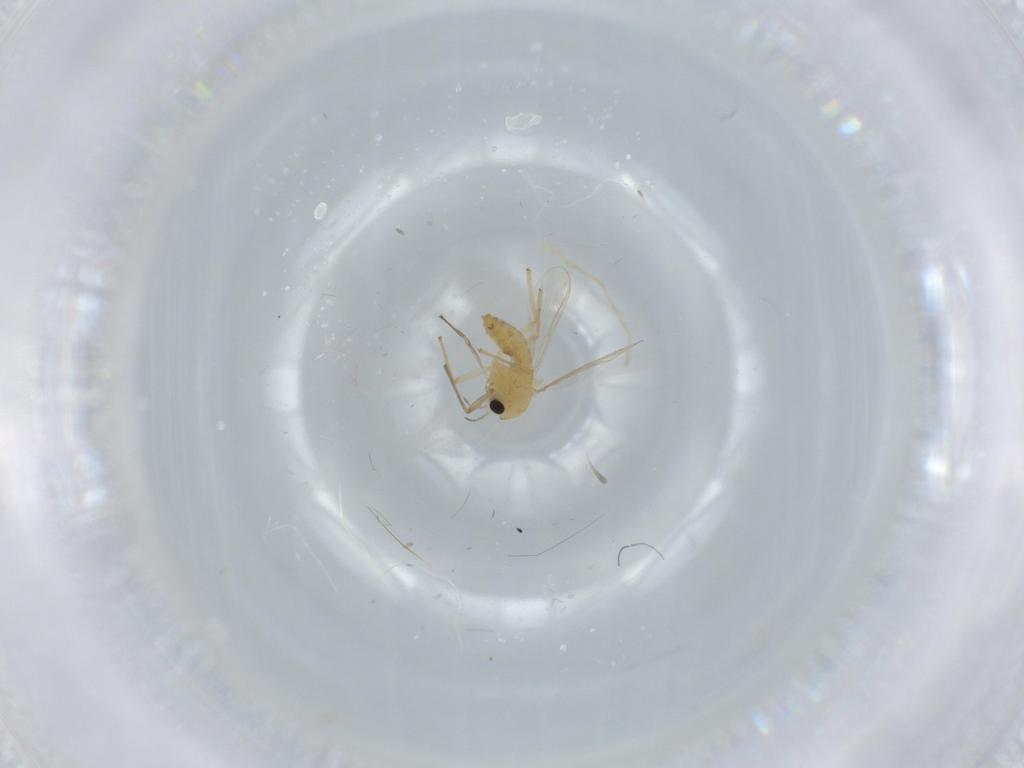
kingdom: Animalia
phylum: Arthropoda
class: Insecta
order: Diptera
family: Chironomidae
